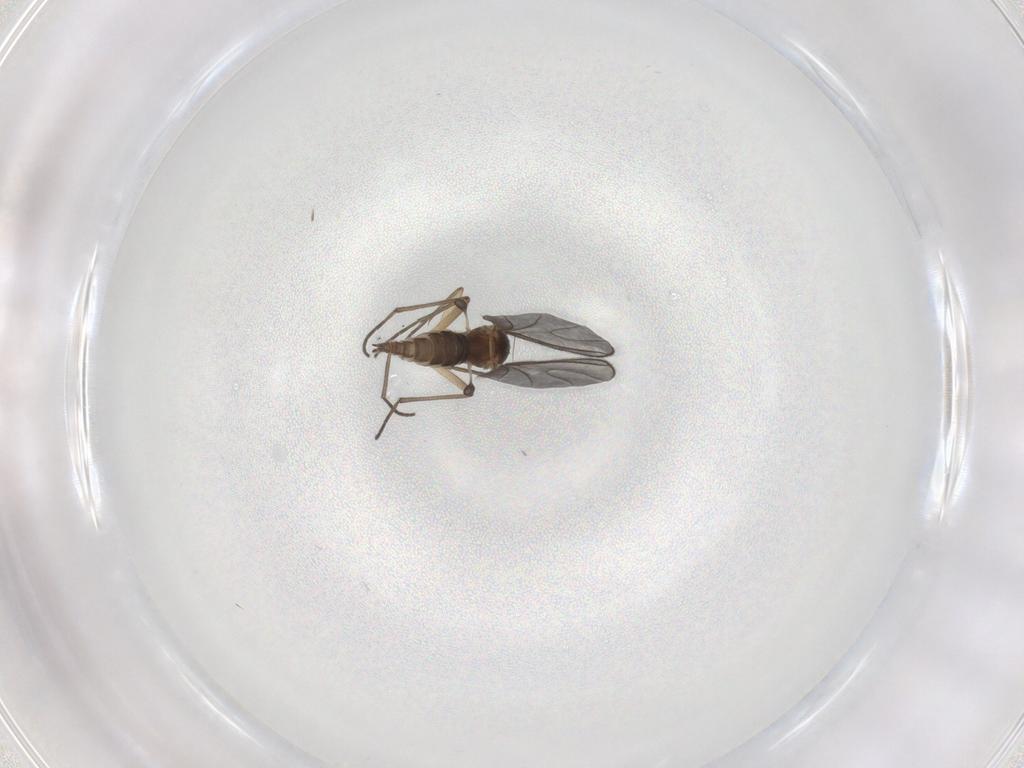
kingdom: Animalia
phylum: Arthropoda
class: Insecta
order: Diptera
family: Sciaridae
